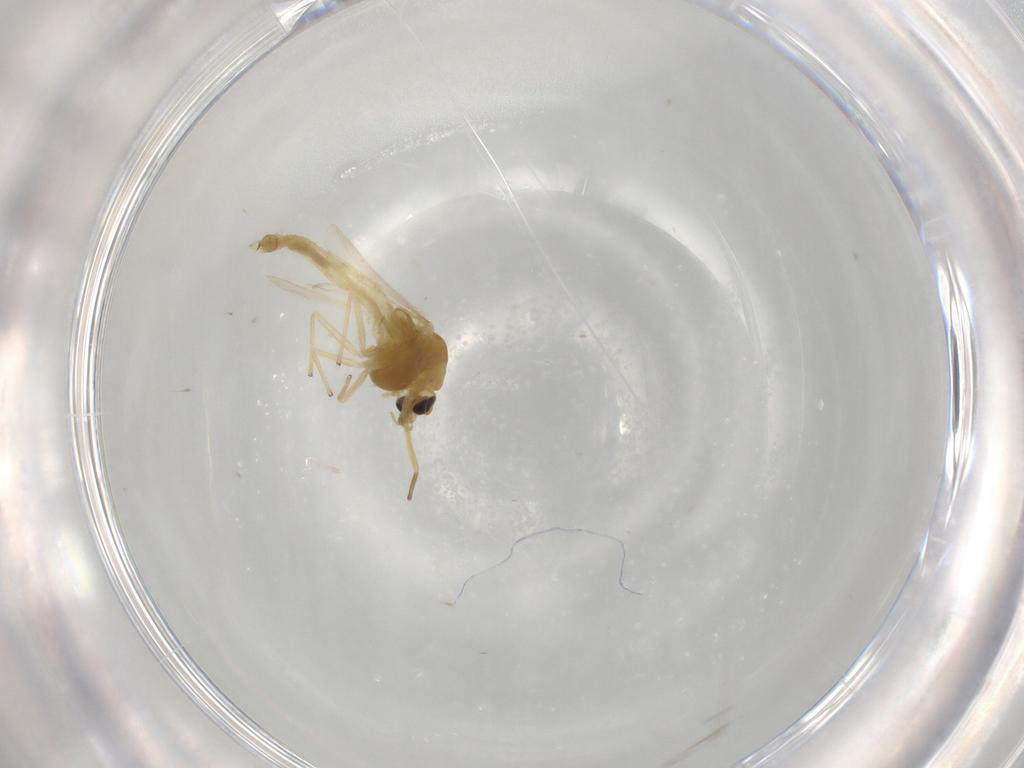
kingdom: Animalia
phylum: Arthropoda
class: Insecta
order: Diptera
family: Chironomidae
